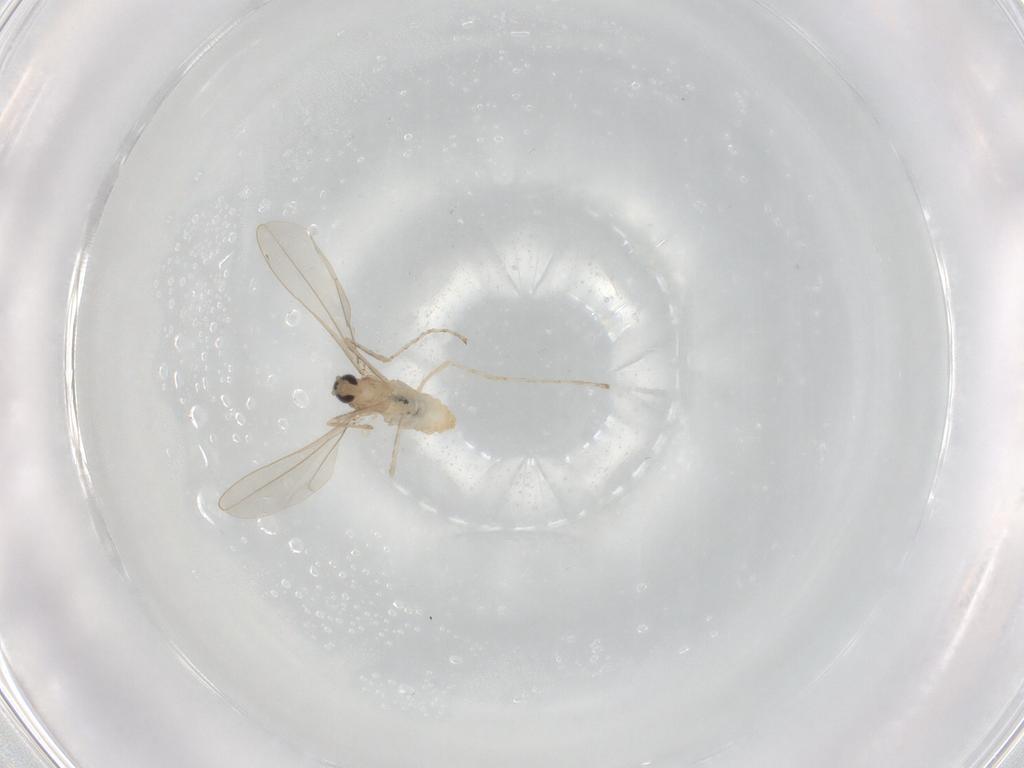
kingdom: Animalia
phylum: Arthropoda
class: Insecta
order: Diptera
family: Cecidomyiidae
